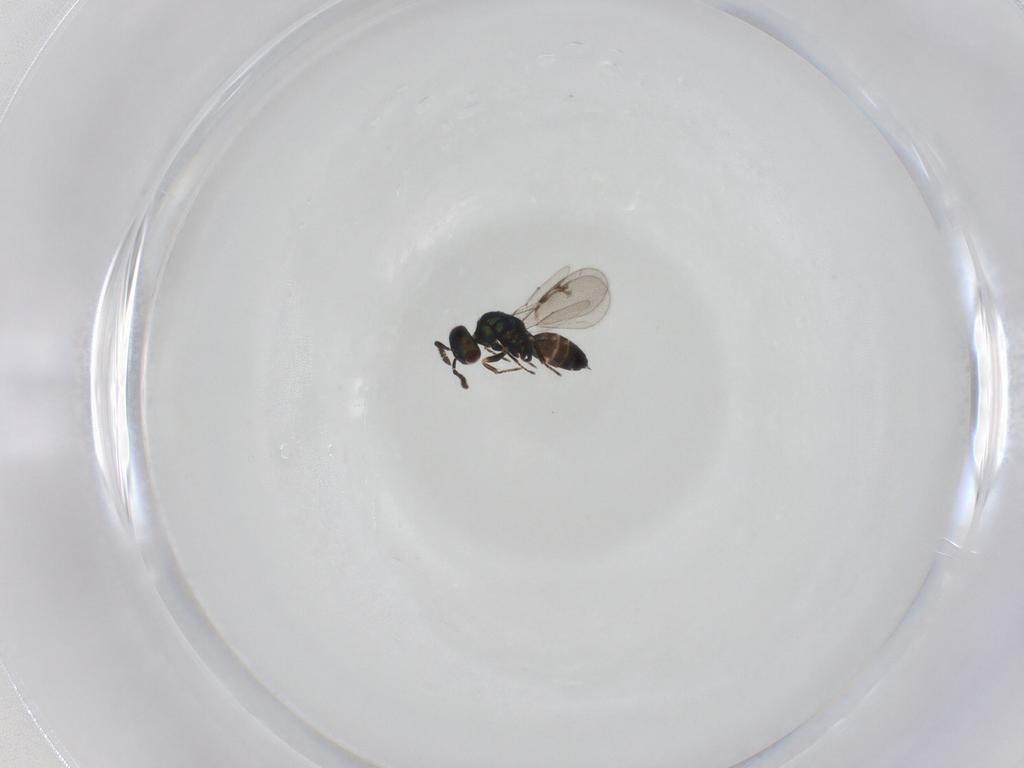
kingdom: Animalia
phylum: Arthropoda
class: Insecta
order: Hymenoptera
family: Pteromalidae
